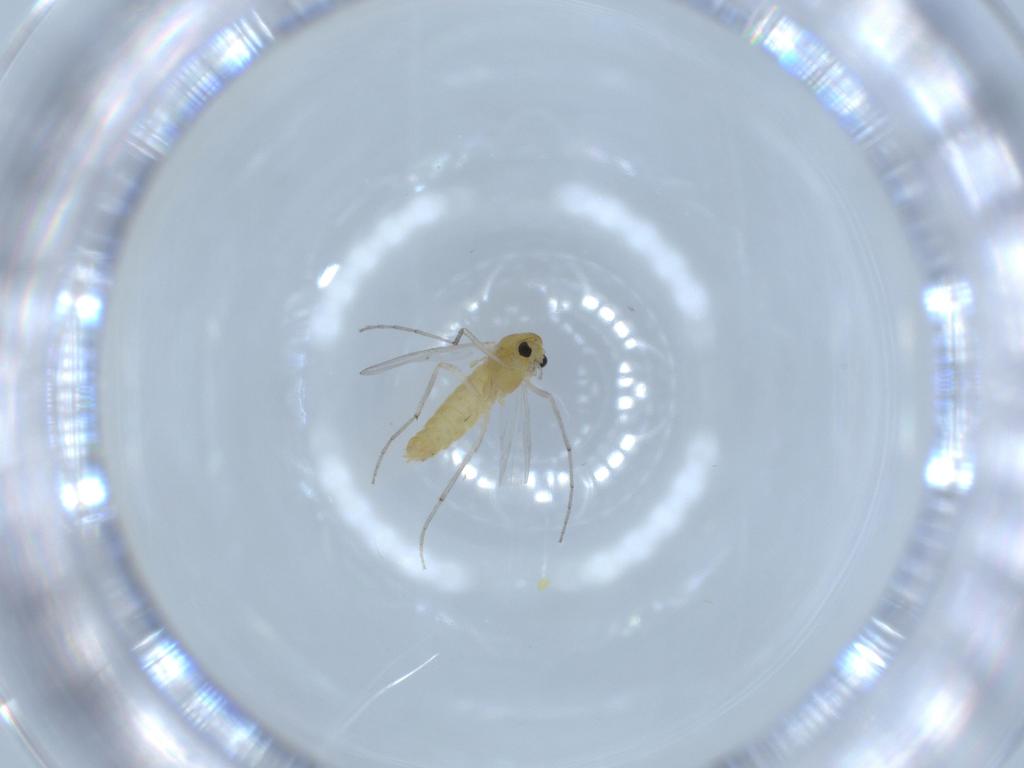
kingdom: Animalia
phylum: Arthropoda
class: Insecta
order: Diptera
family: Chironomidae
